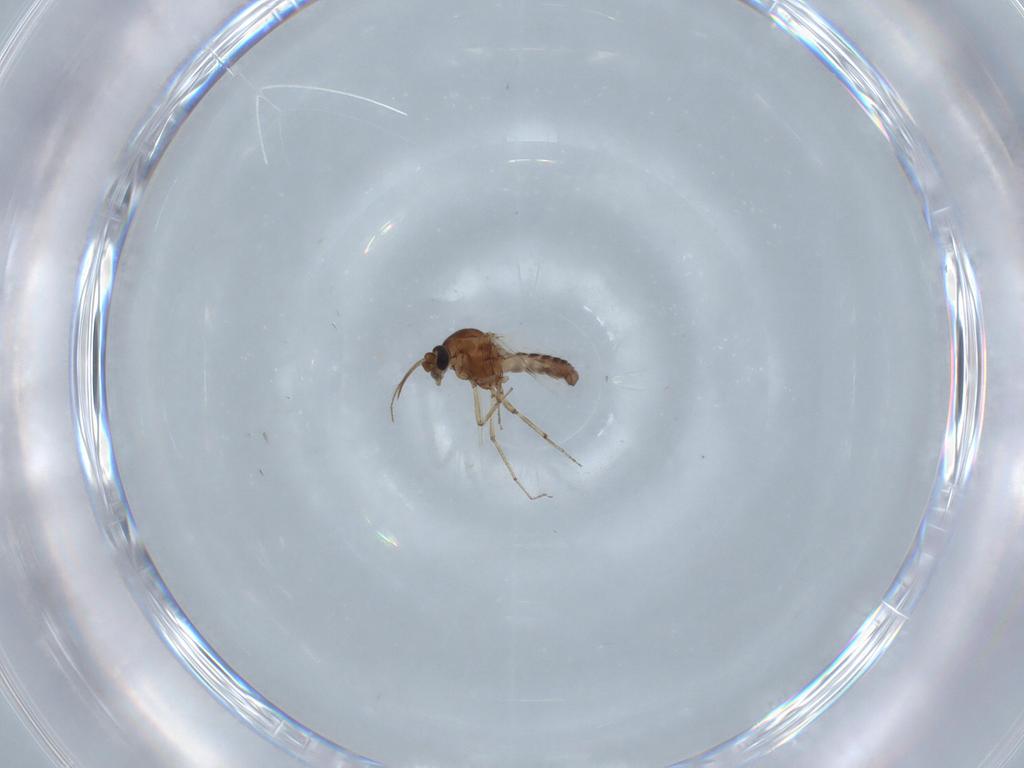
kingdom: Animalia
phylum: Arthropoda
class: Insecta
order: Diptera
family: Ceratopogonidae
